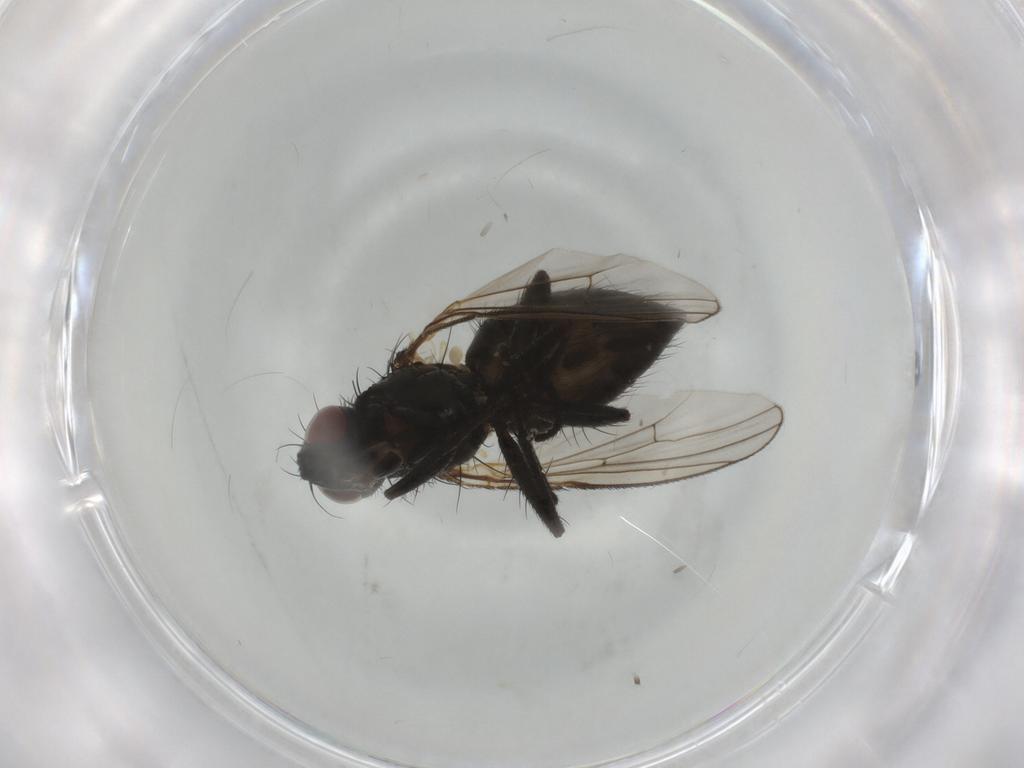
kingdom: Animalia
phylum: Arthropoda
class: Insecta
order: Diptera
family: Muscidae
